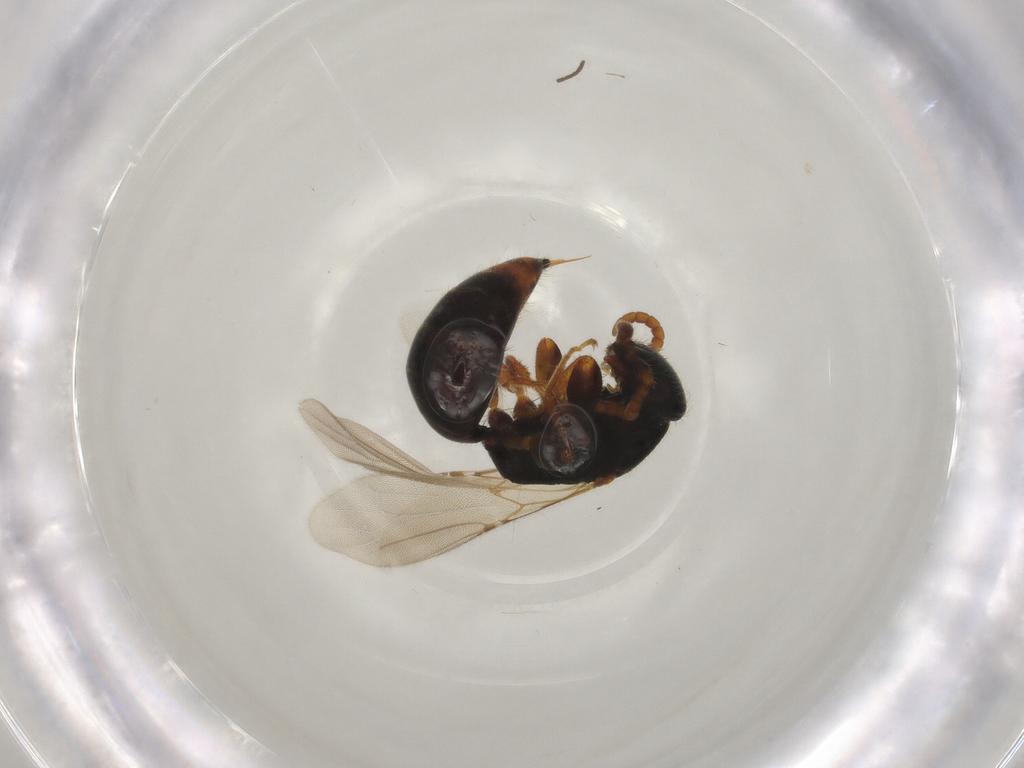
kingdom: Animalia
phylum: Arthropoda
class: Insecta
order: Hymenoptera
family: Bethylidae
